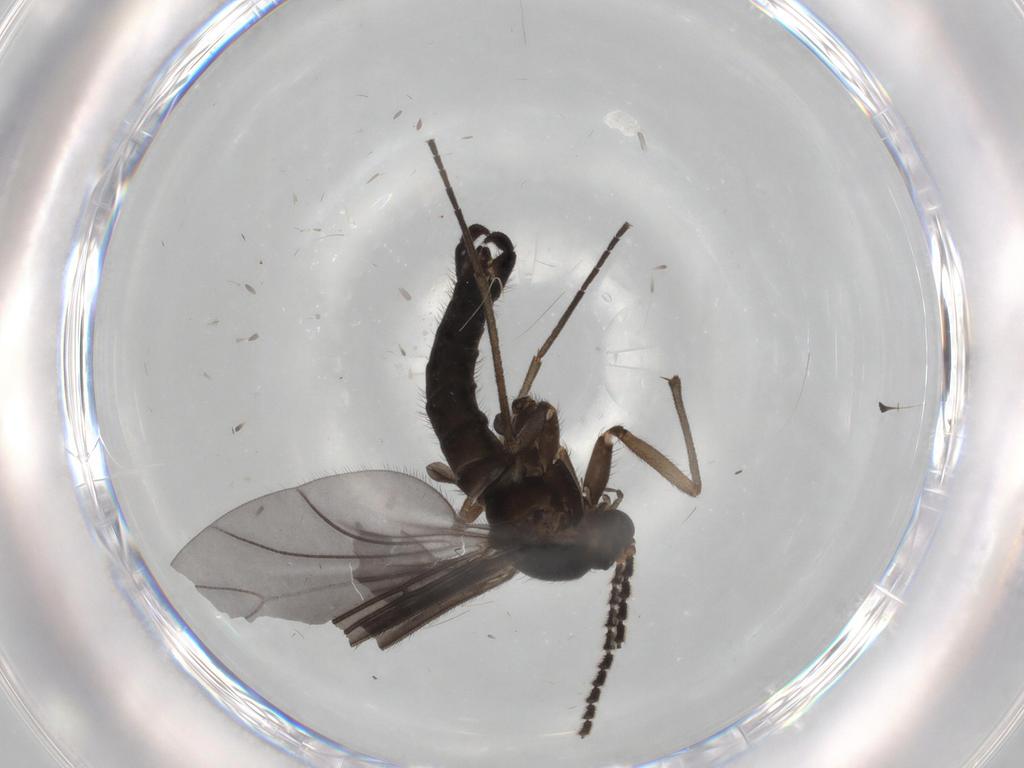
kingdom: Animalia
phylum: Arthropoda
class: Insecta
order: Diptera
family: Sciaridae
